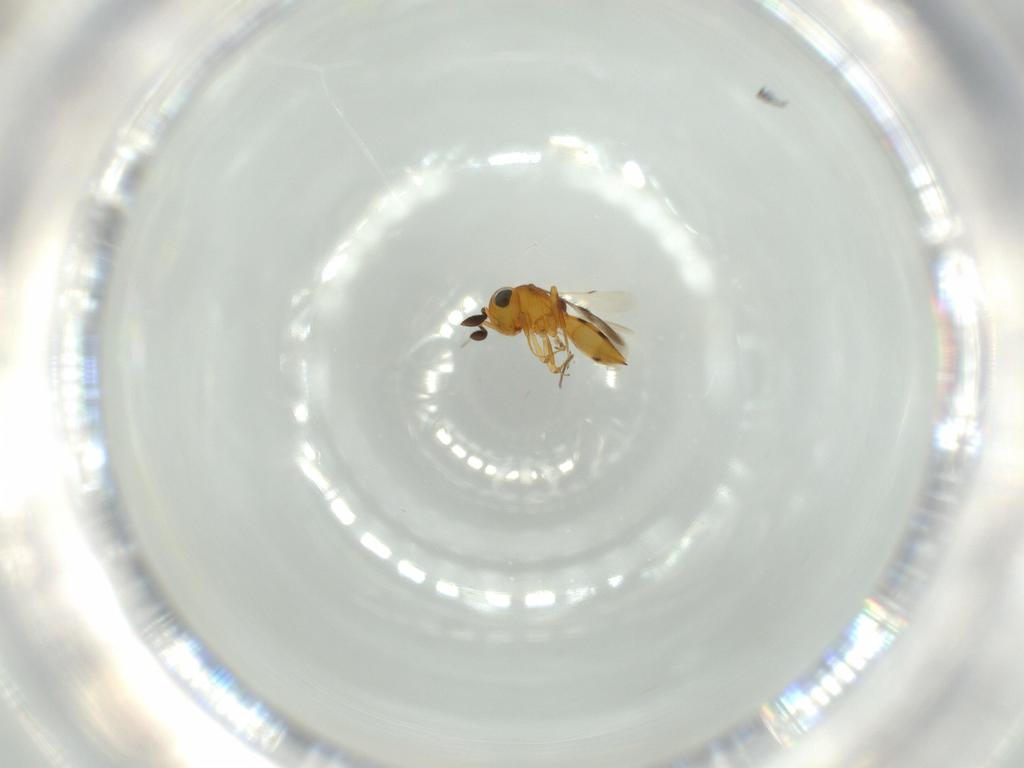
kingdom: Animalia
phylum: Arthropoda
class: Insecta
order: Hymenoptera
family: Scelionidae
